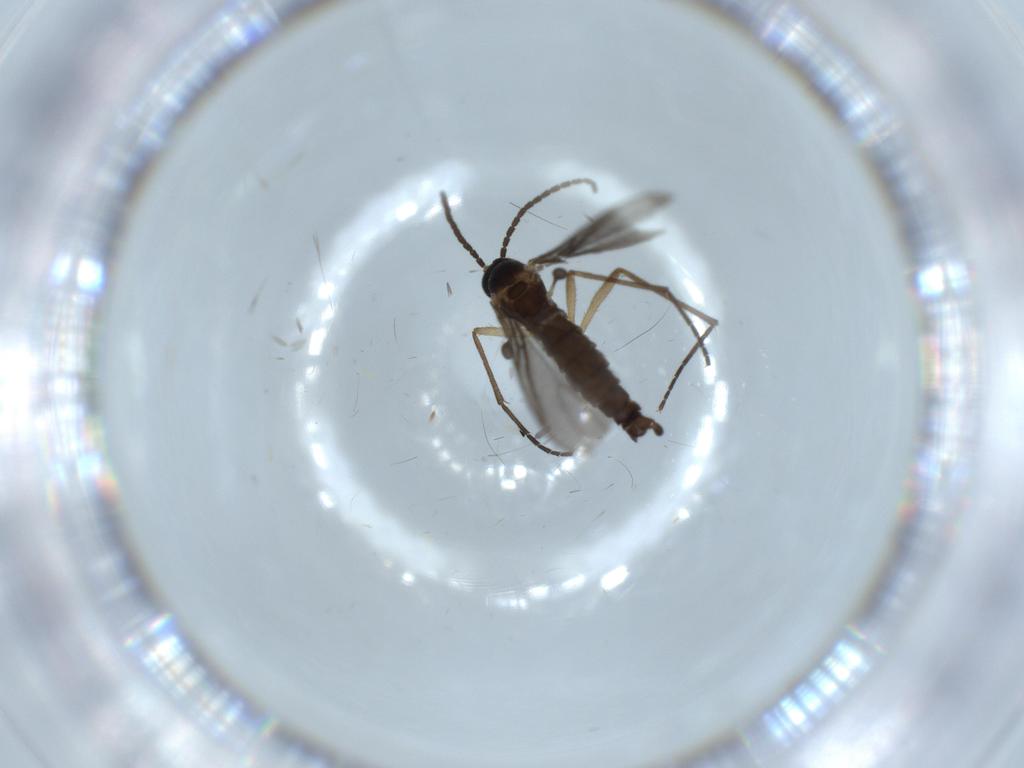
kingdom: Animalia
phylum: Arthropoda
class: Insecta
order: Diptera
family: Sciaridae
